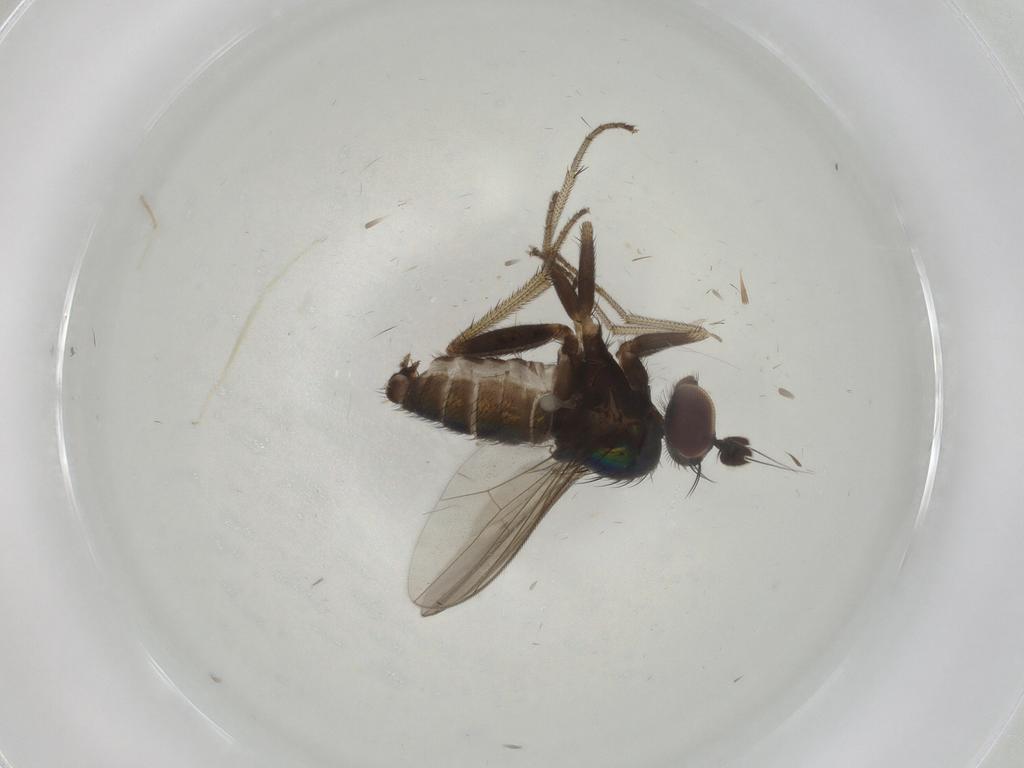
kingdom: Animalia
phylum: Arthropoda
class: Insecta
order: Diptera
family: Dolichopodidae
